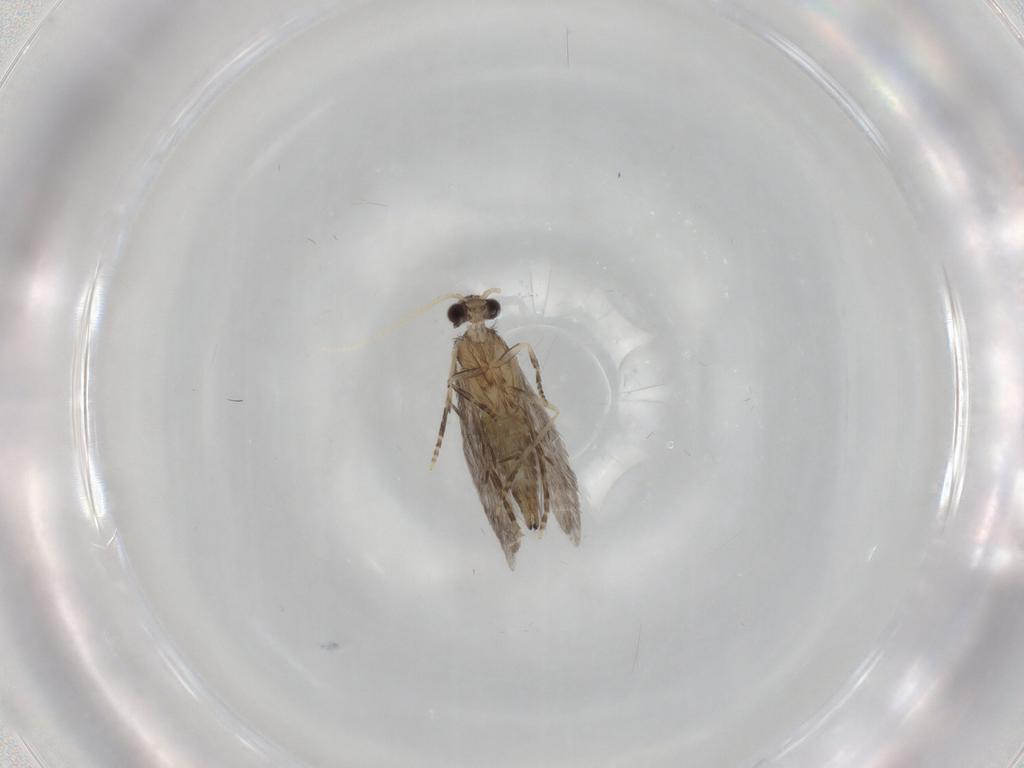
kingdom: Animalia
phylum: Arthropoda
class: Insecta
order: Trichoptera
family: Hydroptilidae
